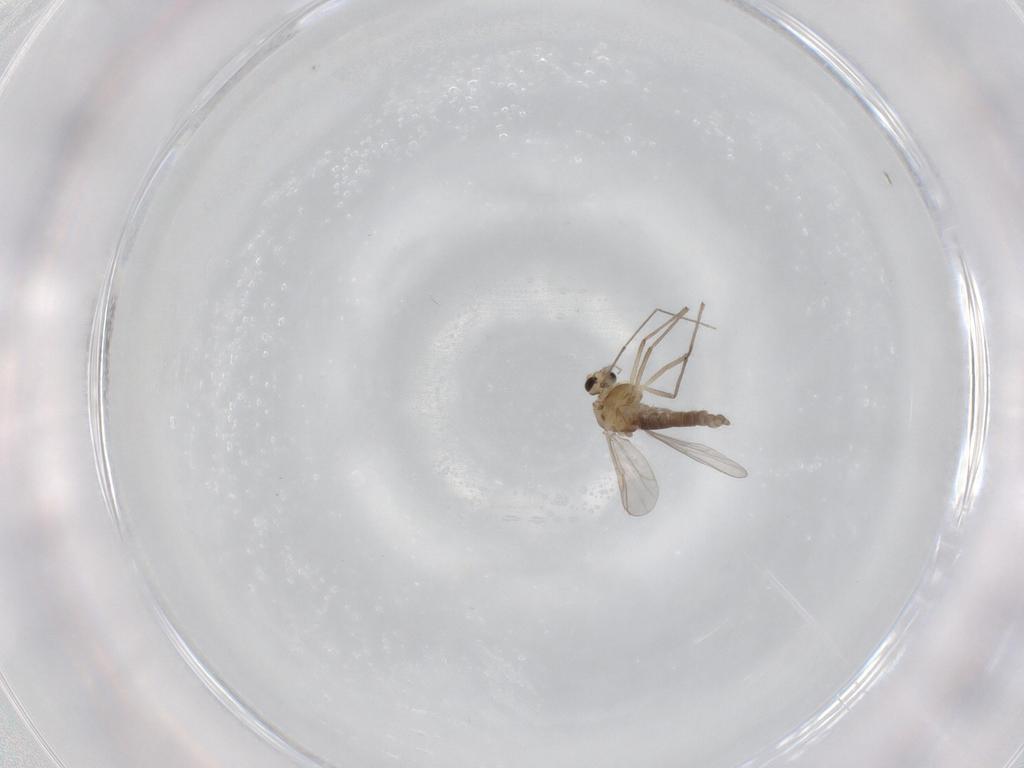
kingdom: Animalia
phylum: Arthropoda
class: Insecta
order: Diptera
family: Chironomidae
